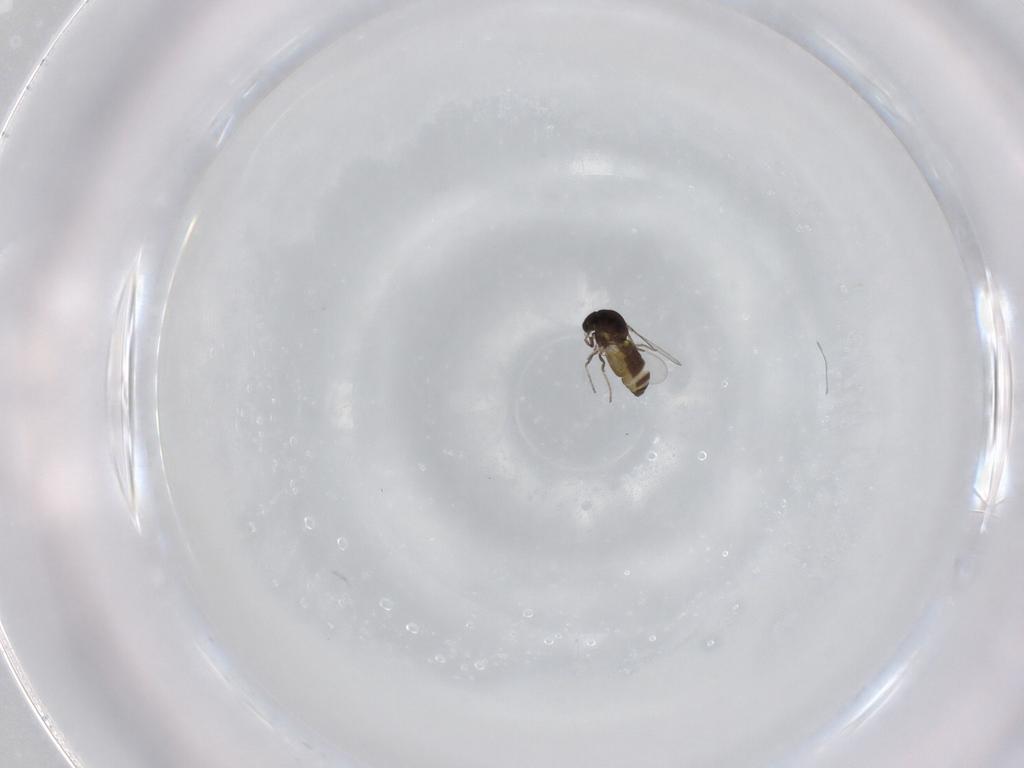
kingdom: Animalia
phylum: Arthropoda
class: Insecta
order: Diptera
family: Ceratopogonidae
